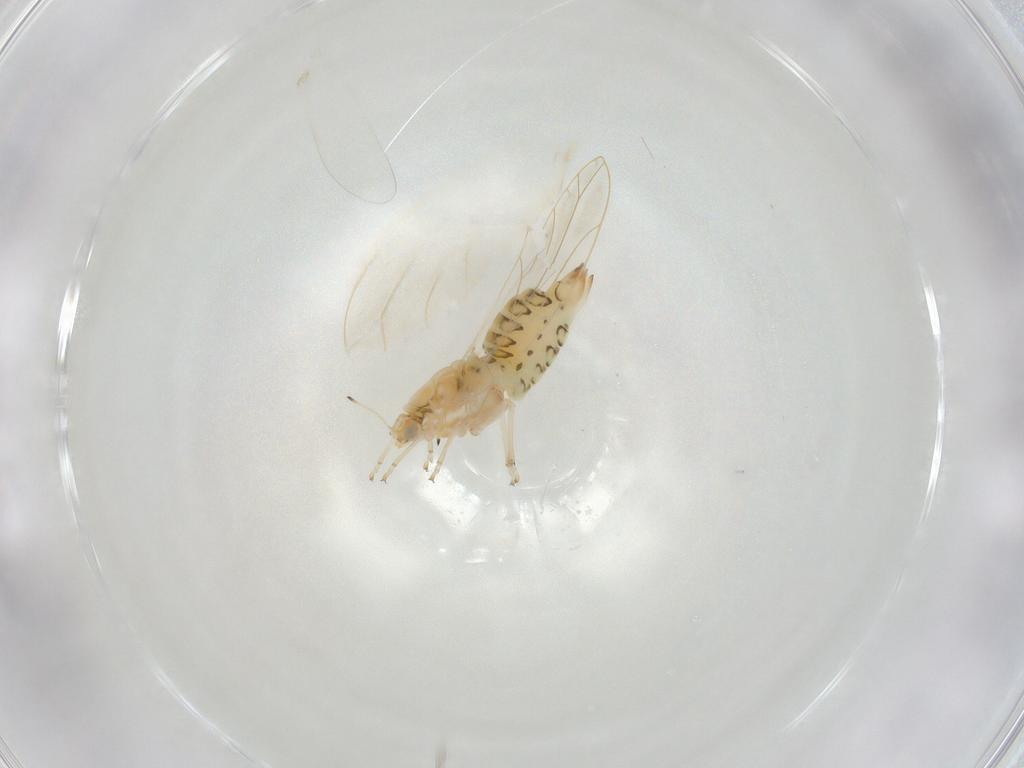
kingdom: Animalia
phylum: Arthropoda
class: Insecta
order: Hemiptera
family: Triozidae
